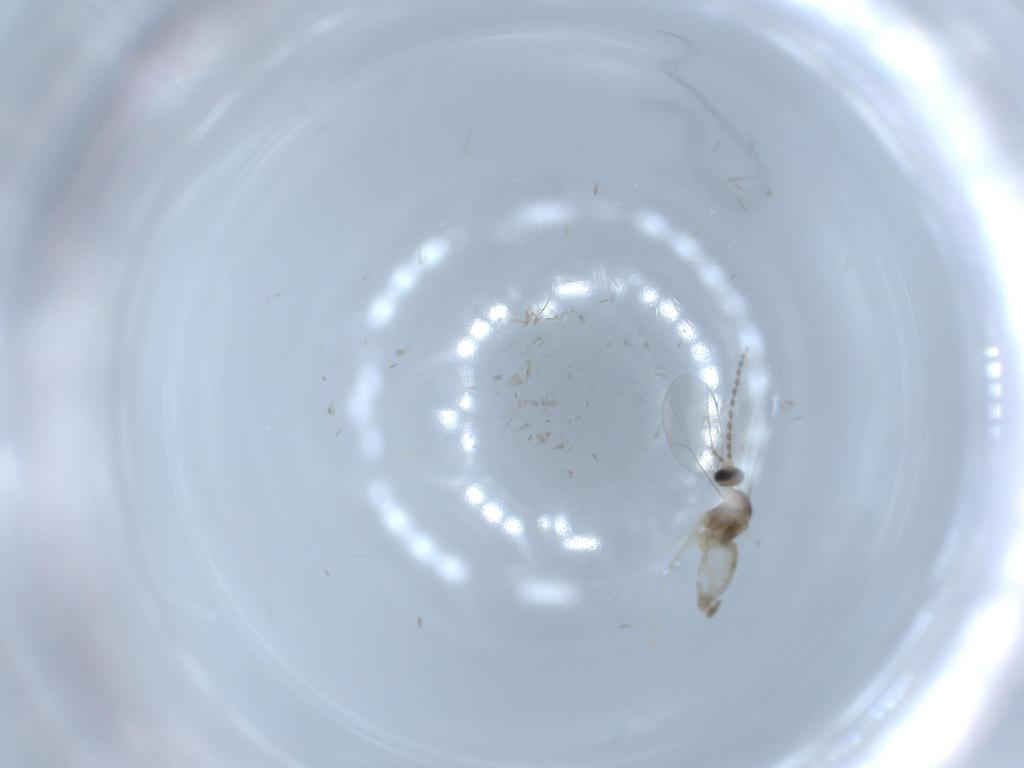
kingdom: Animalia
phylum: Arthropoda
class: Insecta
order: Diptera
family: Cecidomyiidae
